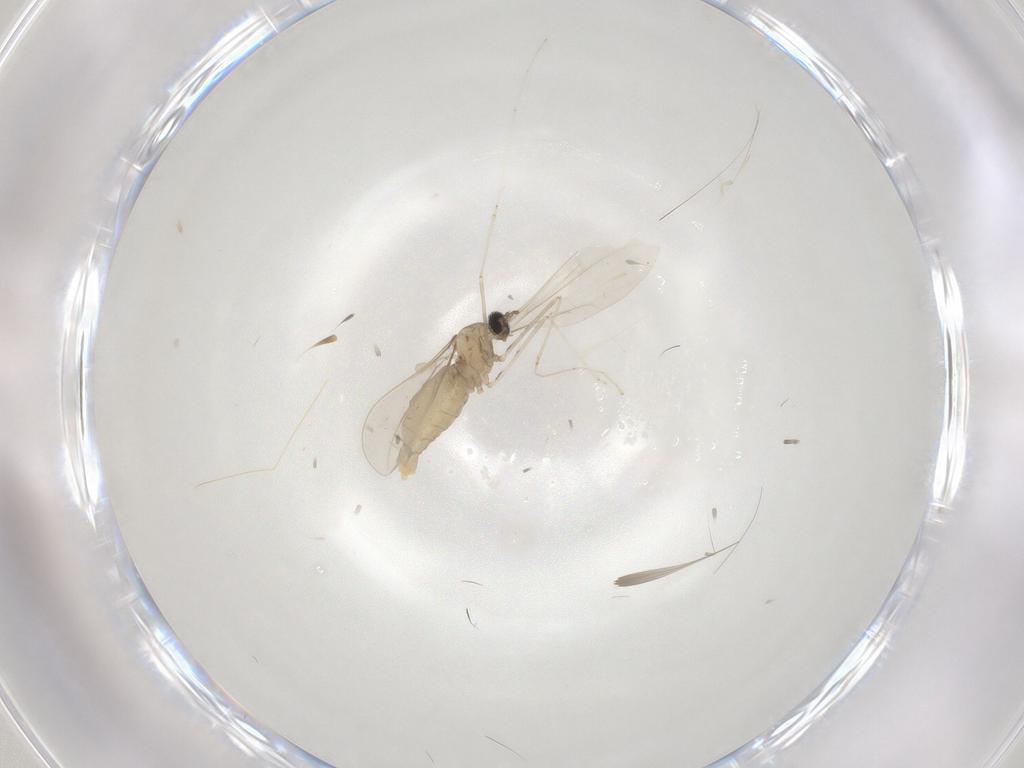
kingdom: Animalia
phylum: Arthropoda
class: Insecta
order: Diptera
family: Cecidomyiidae
